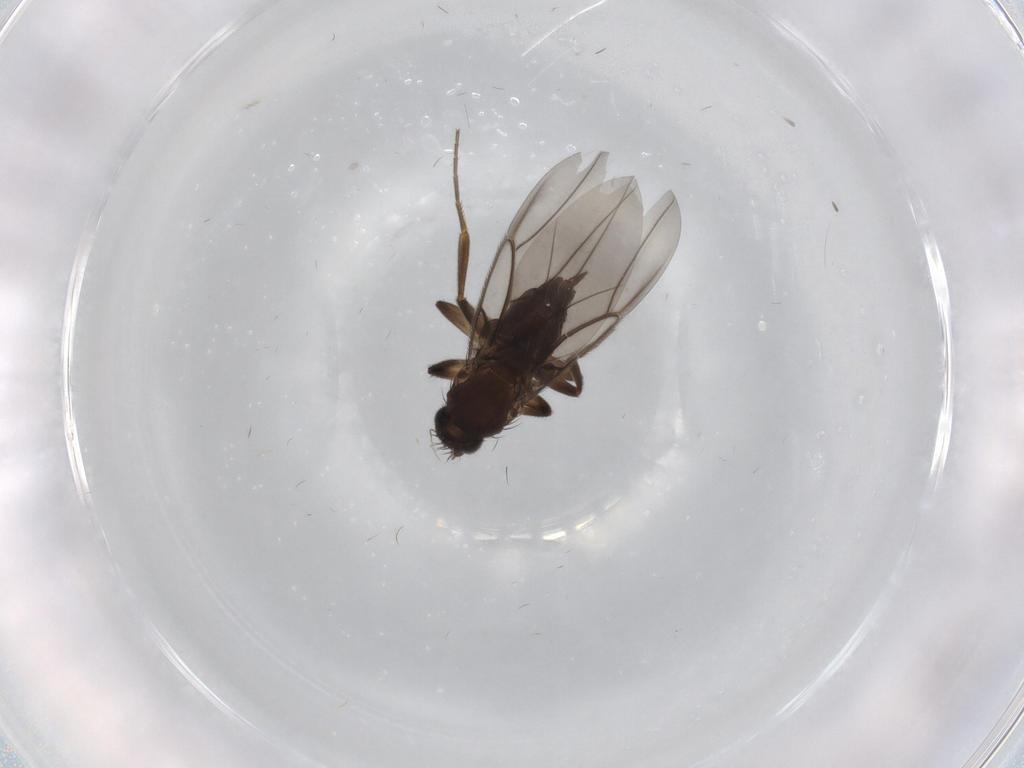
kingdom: Animalia
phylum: Arthropoda
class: Insecta
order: Diptera
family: Phoridae
